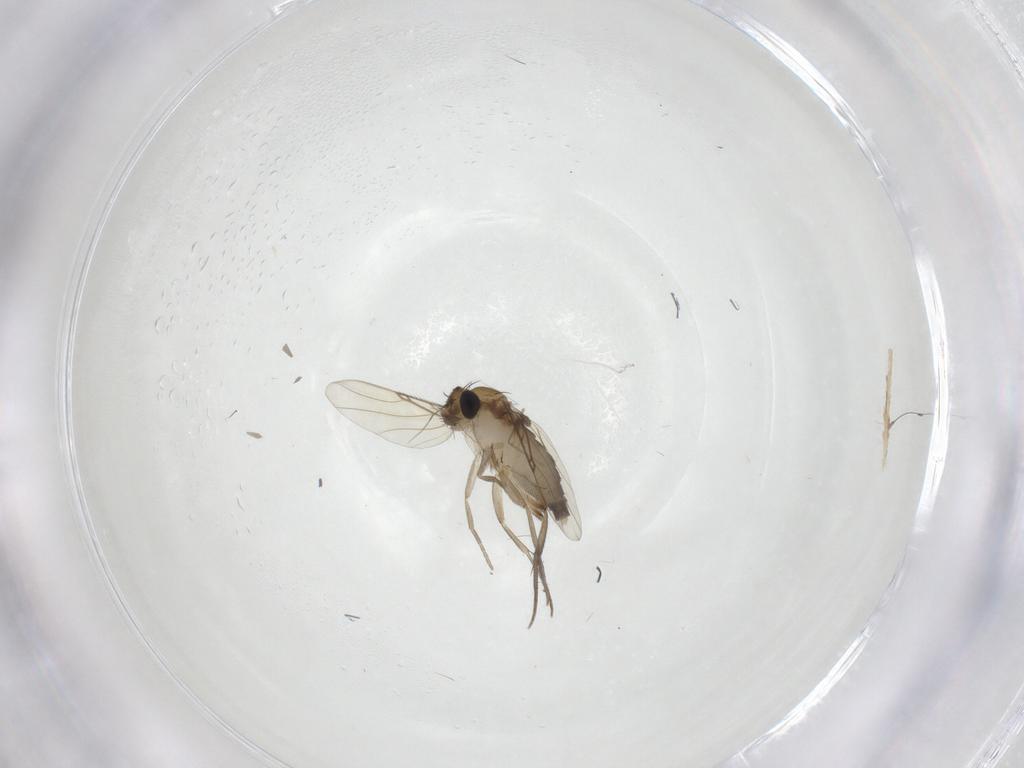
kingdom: Animalia
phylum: Arthropoda
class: Insecta
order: Diptera
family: Phoridae
